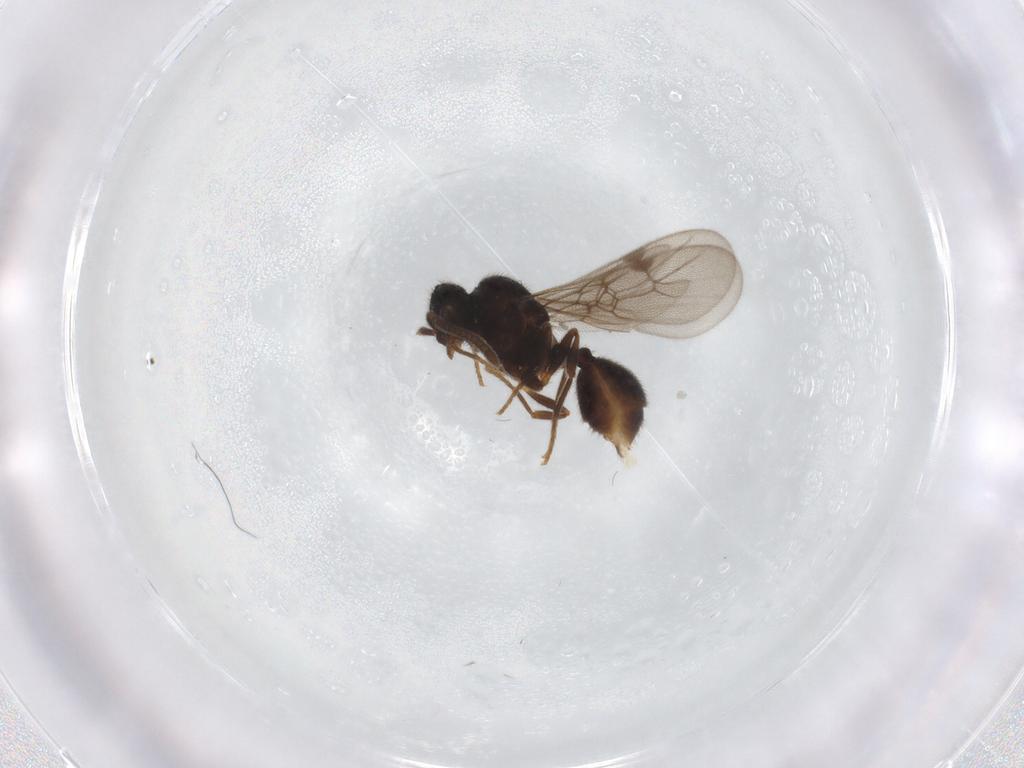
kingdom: Animalia
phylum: Arthropoda
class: Insecta
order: Hymenoptera
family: Formicidae
